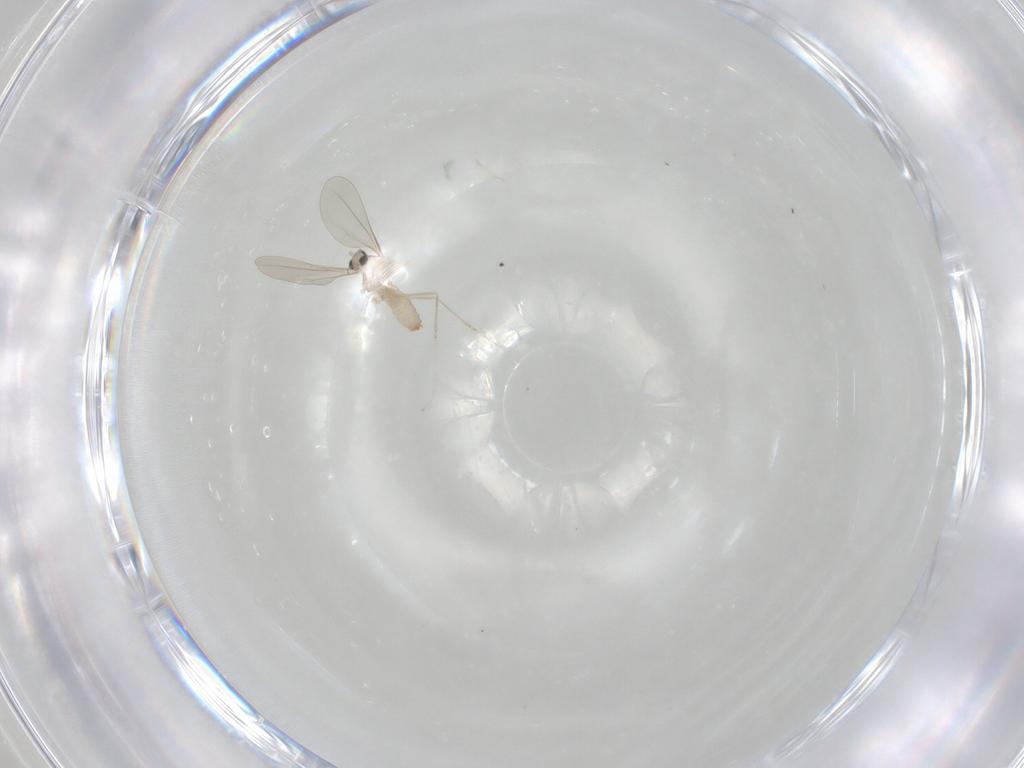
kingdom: Animalia
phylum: Arthropoda
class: Insecta
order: Diptera
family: Cecidomyiidae
